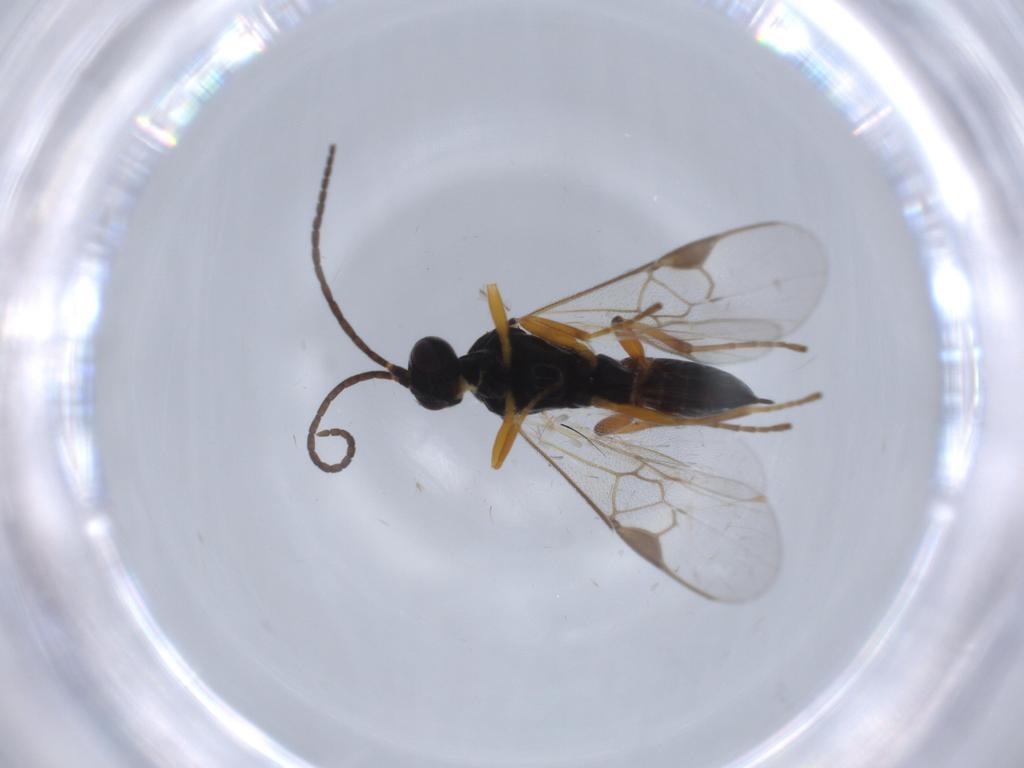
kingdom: Animalia
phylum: Arthropoda
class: Insecta
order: Hymenoptera
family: Braconidae
